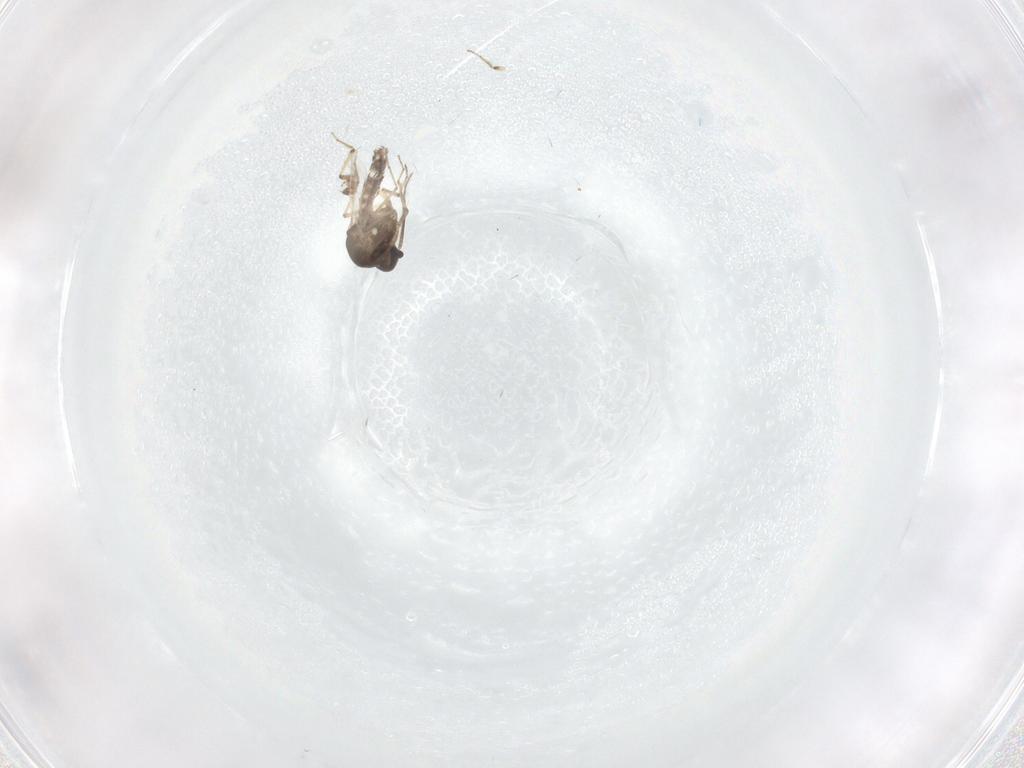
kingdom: Animalia
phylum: Arthropoda
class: Insecta
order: Diptera
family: Cecidomyiidae
